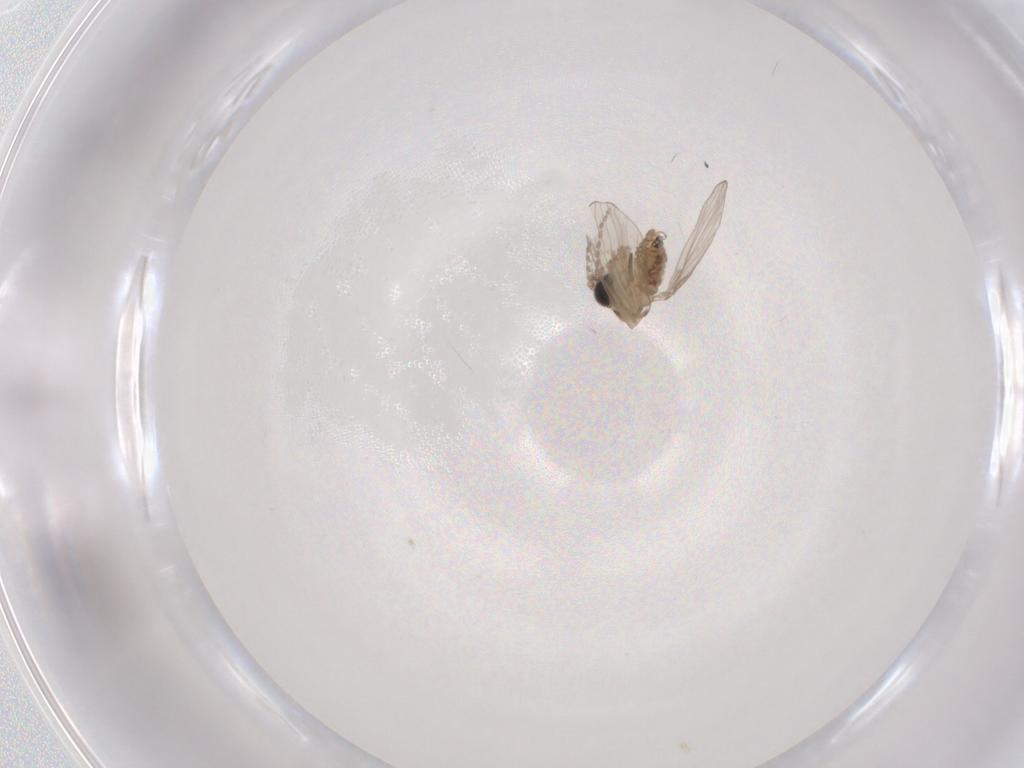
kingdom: Animalia
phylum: Arthropoda
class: Insecta
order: Diptera
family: Psychodidae
